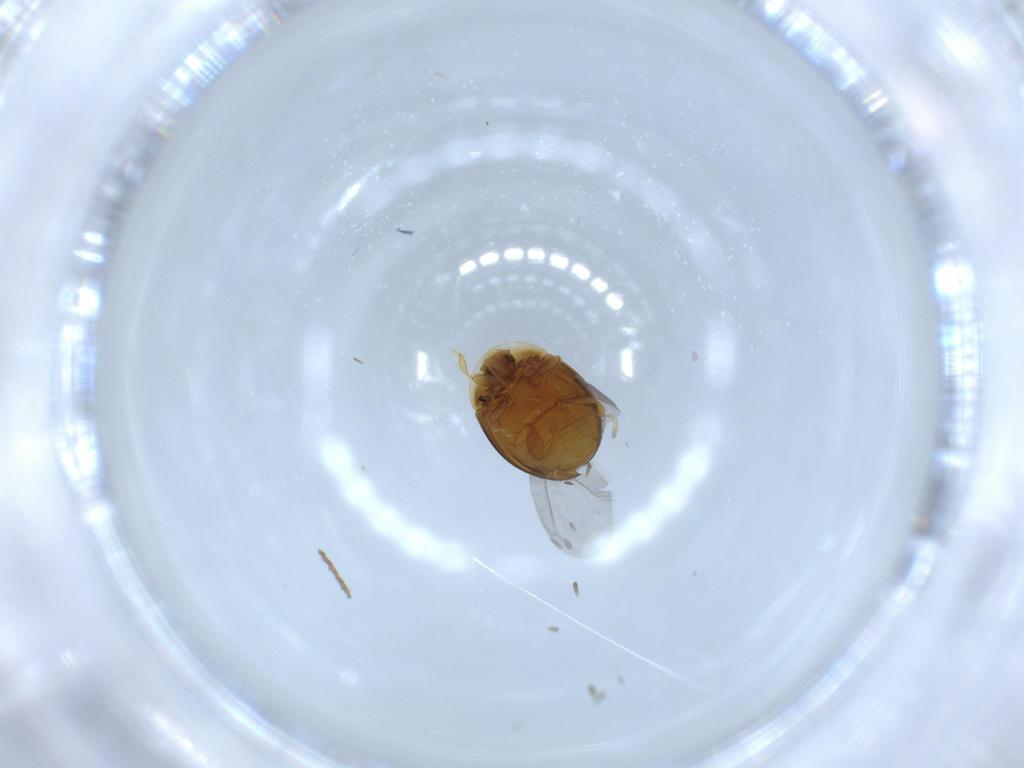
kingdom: Animalia
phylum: Arthropoda
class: Insecta
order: Coleoptera
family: Corylophidae
